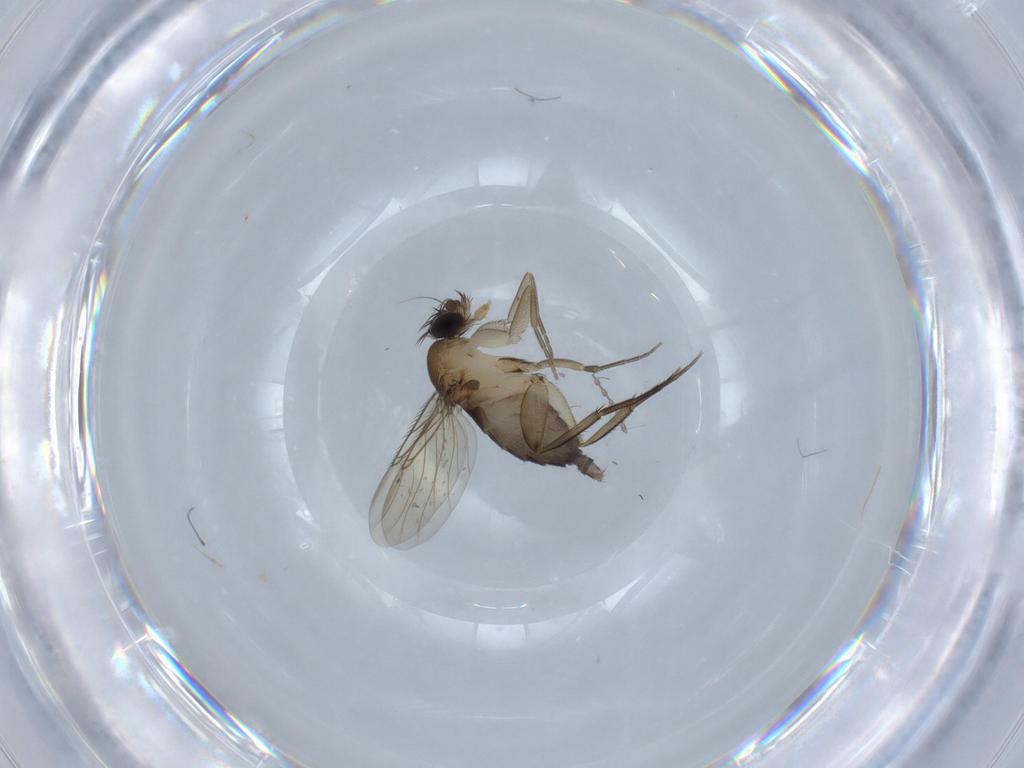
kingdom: Animalia
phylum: Arthropoda
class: Insecta
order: Diptera
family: Phoridae
